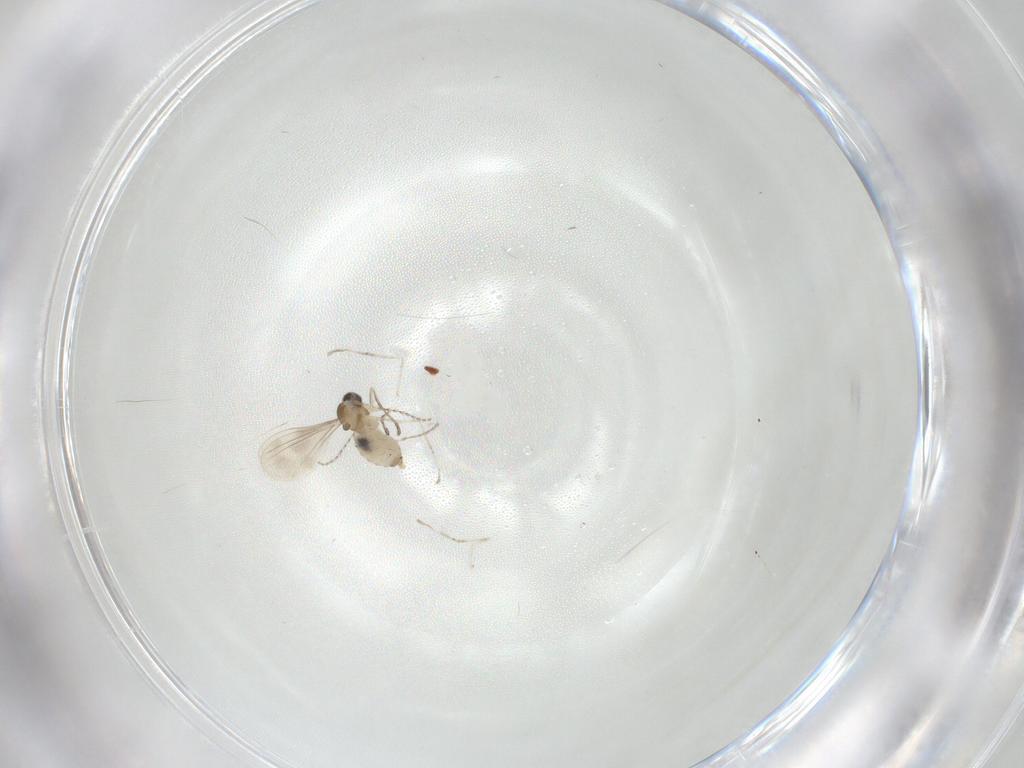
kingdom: Animalia
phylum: Arthropoda
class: Insecta
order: Diptera
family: Cecidomyiidae
